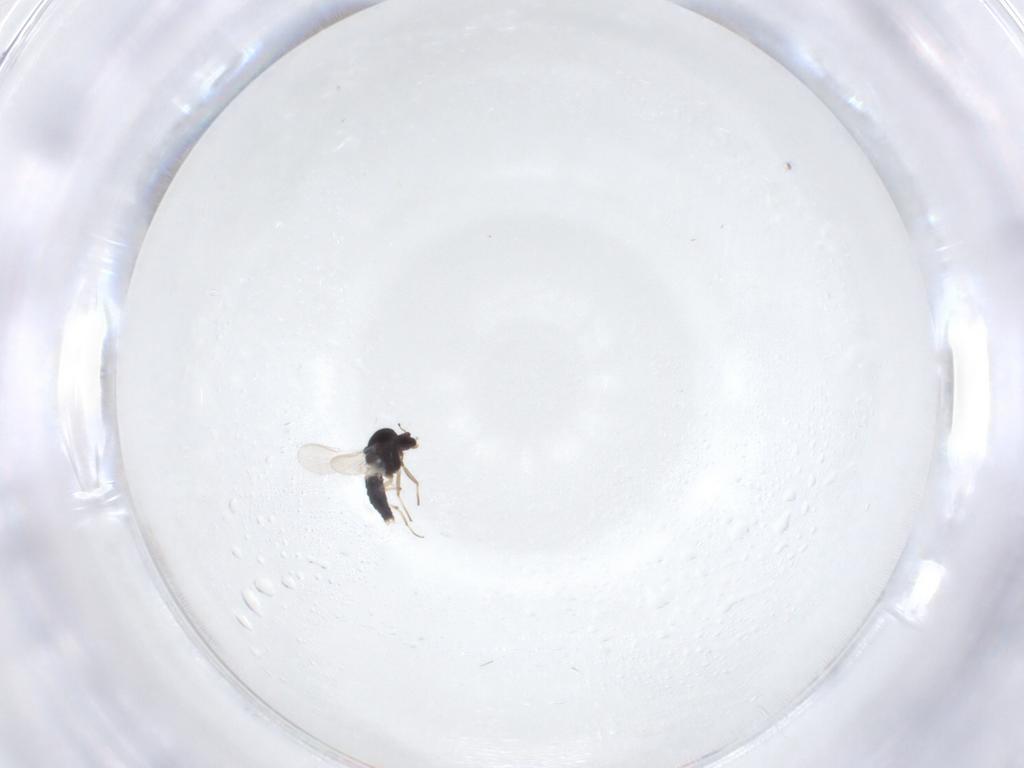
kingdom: Animalia
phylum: Arthropoda
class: Insecta
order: Diptera
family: Chironomidae
